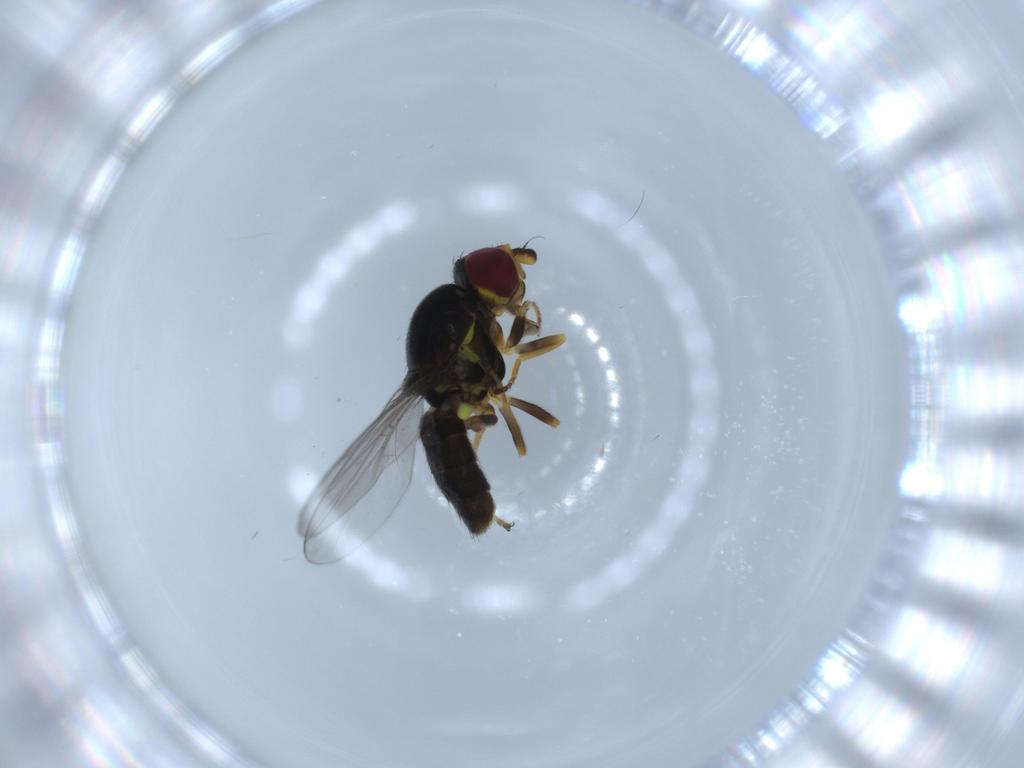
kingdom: Animalia
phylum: Arthropoda
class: Insecta
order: Diptera
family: Chloropidae
